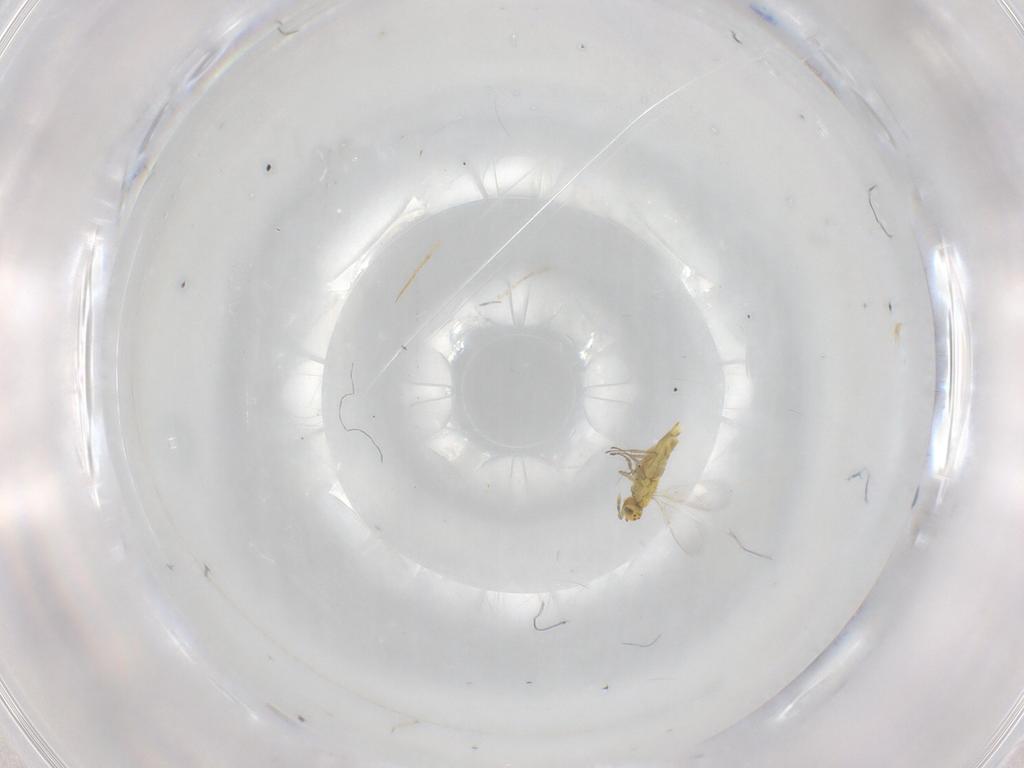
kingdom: Animalia
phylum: Arthropoda
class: Insecta
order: Hymenoptera
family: Aphelinidae
